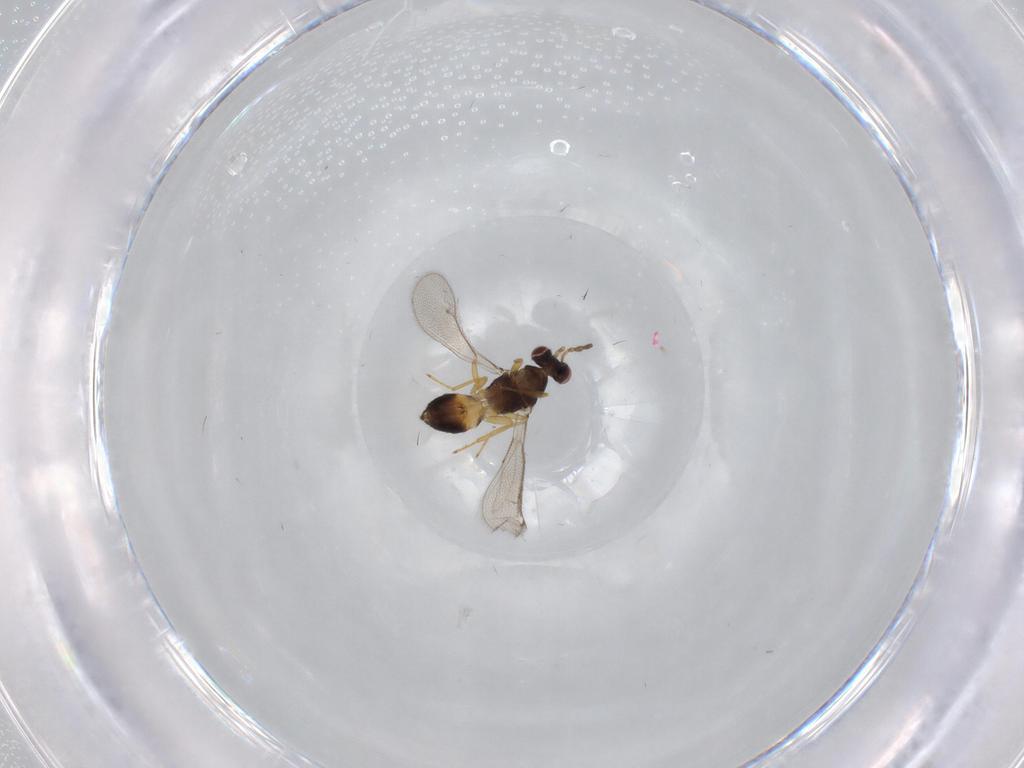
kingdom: Animalia
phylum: Arthropoda
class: Insecta
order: Hymenoptera
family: Eulophidae
